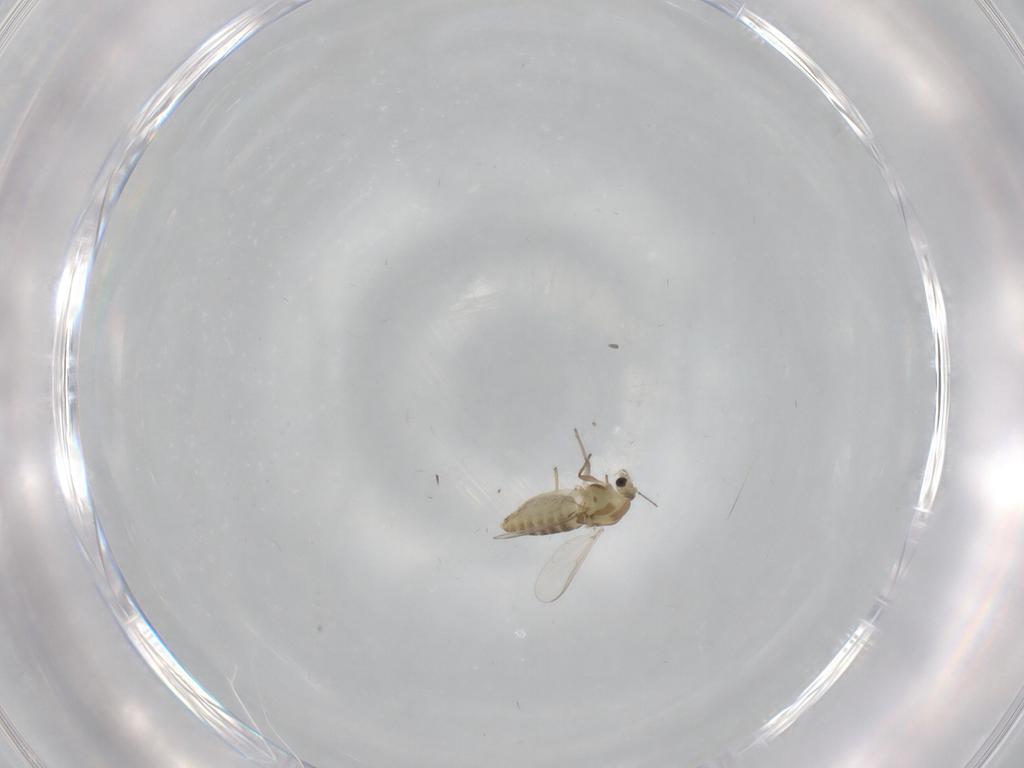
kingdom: Animalia
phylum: Arthropoda
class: Insecta
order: Diptera
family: Chironomidae
